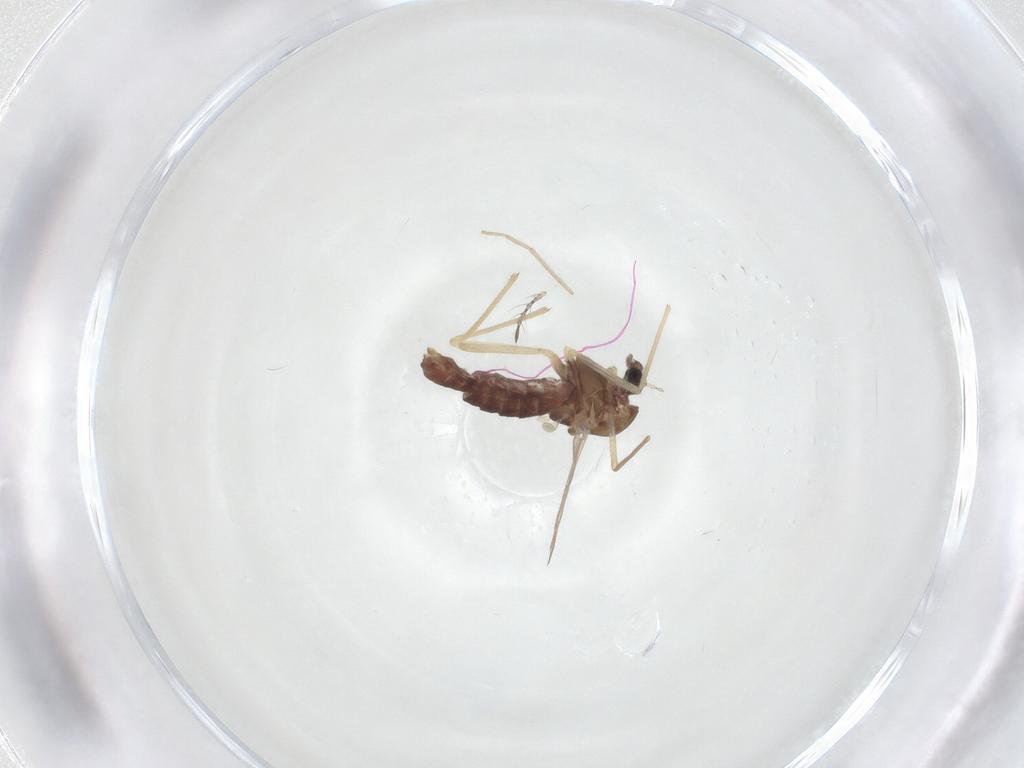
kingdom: Animalia
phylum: Arthropoda
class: Insecta
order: Diptera
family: Chironomidae
